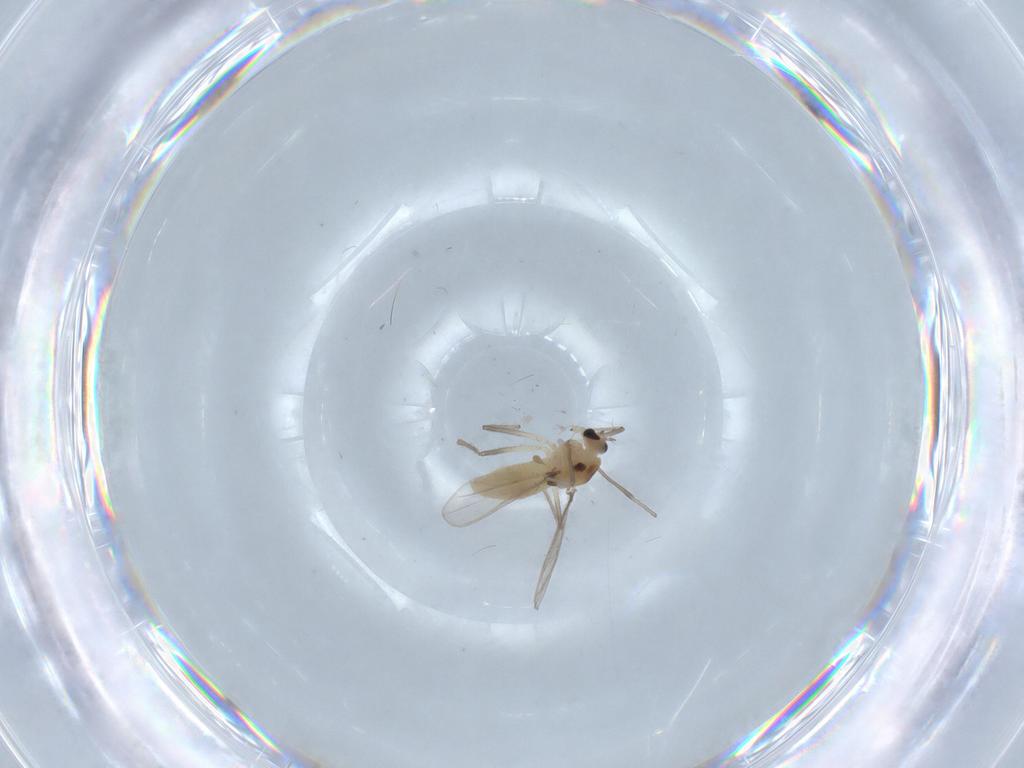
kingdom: Animalia
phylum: Arthropoda
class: Insecta
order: Diptera
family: Chironomidae
